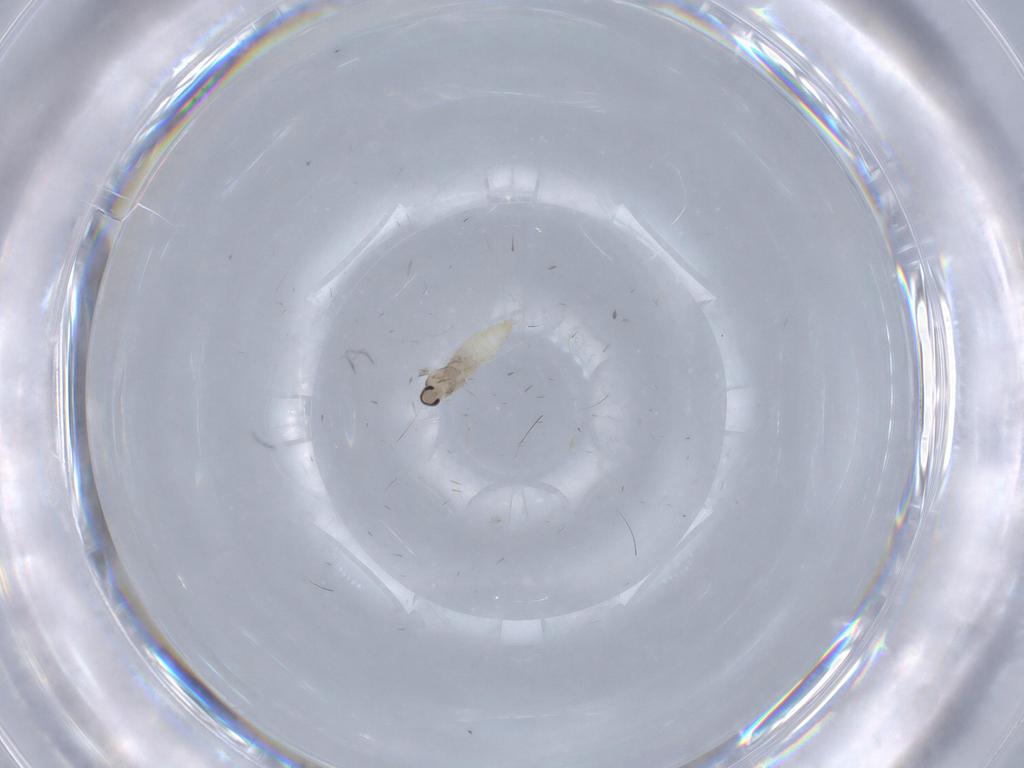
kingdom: Animalia
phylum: Arthropoda
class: Insecta
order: Diptera
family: Cecidomyiidae
